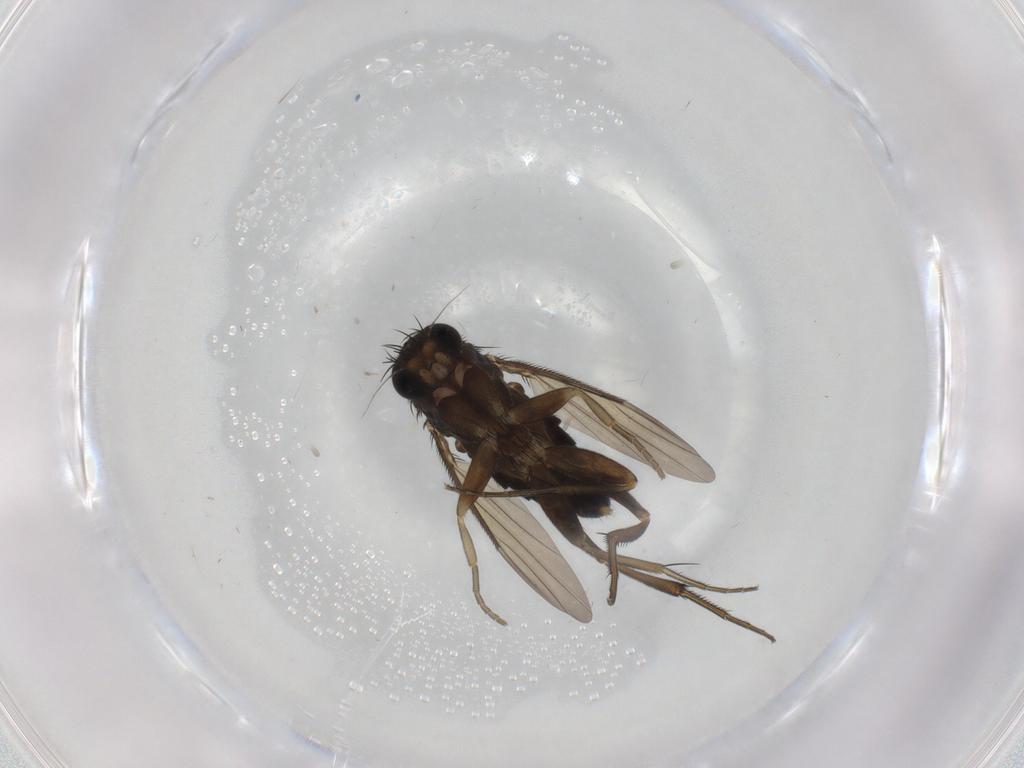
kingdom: Animalia
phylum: Arthropoda
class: Insecta
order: Diptera
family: Phoridae
